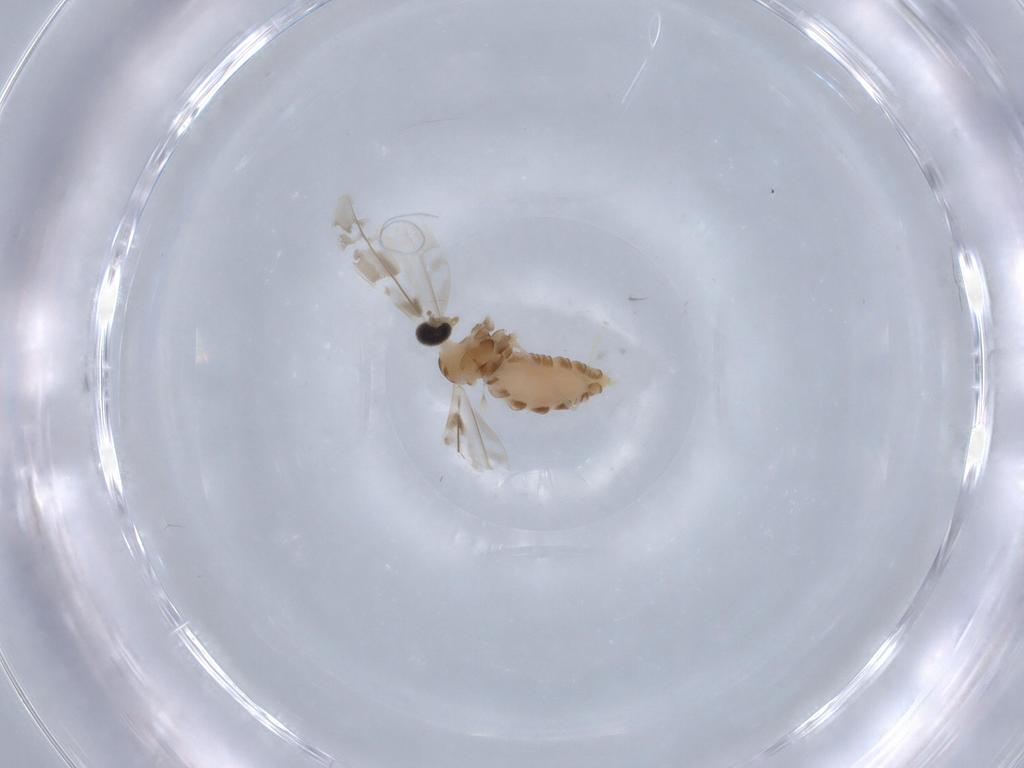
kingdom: Animalia
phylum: Arthropoda
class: Insecta
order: Diptera
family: Cecidomyiidae
